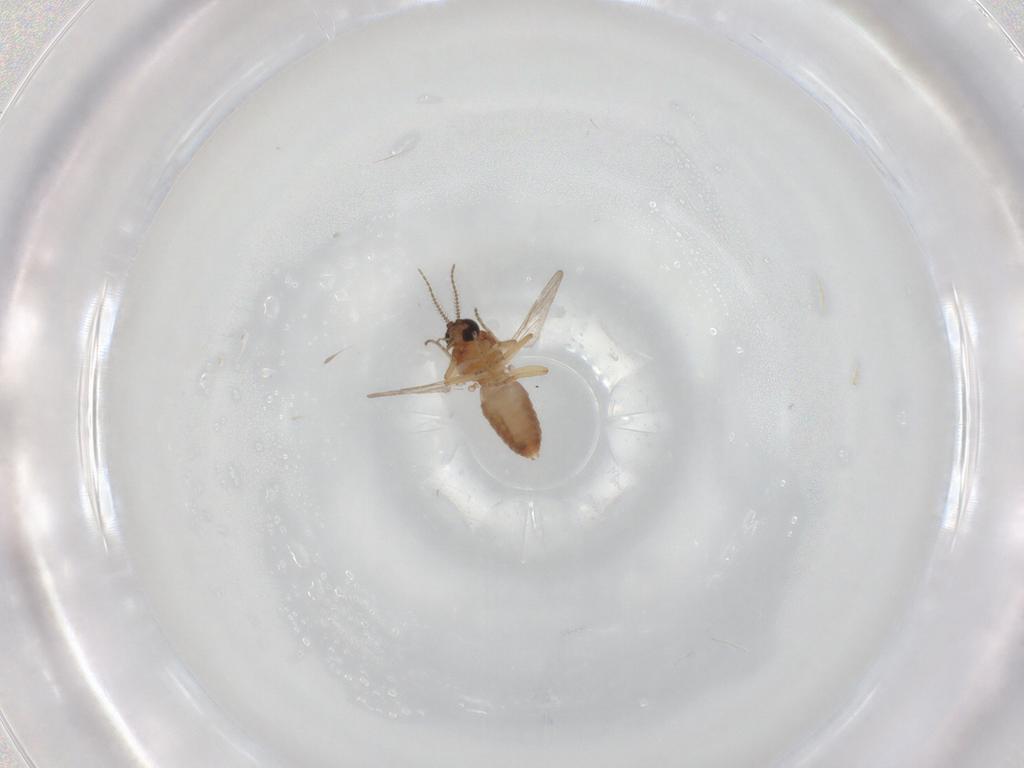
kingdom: Animalia
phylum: Arthropoda
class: Insecta
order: Diptera
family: Ceratopogonidae
